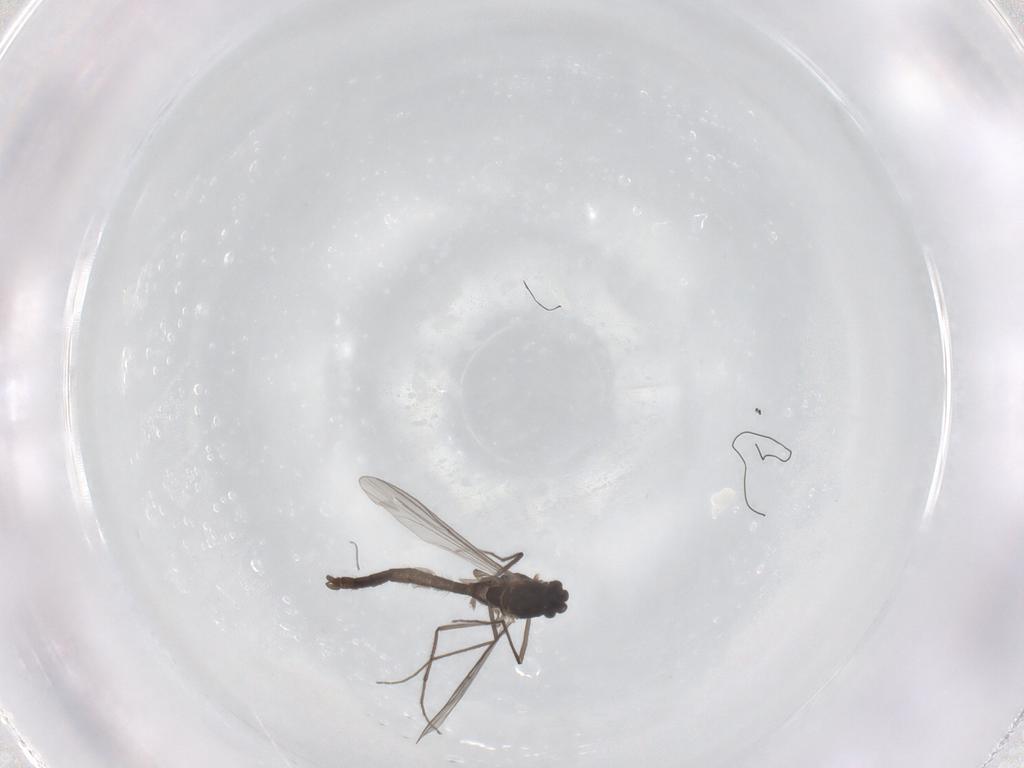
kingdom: Animalia
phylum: Arthropoda
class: Insecta
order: Diptera
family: Chironomidae
